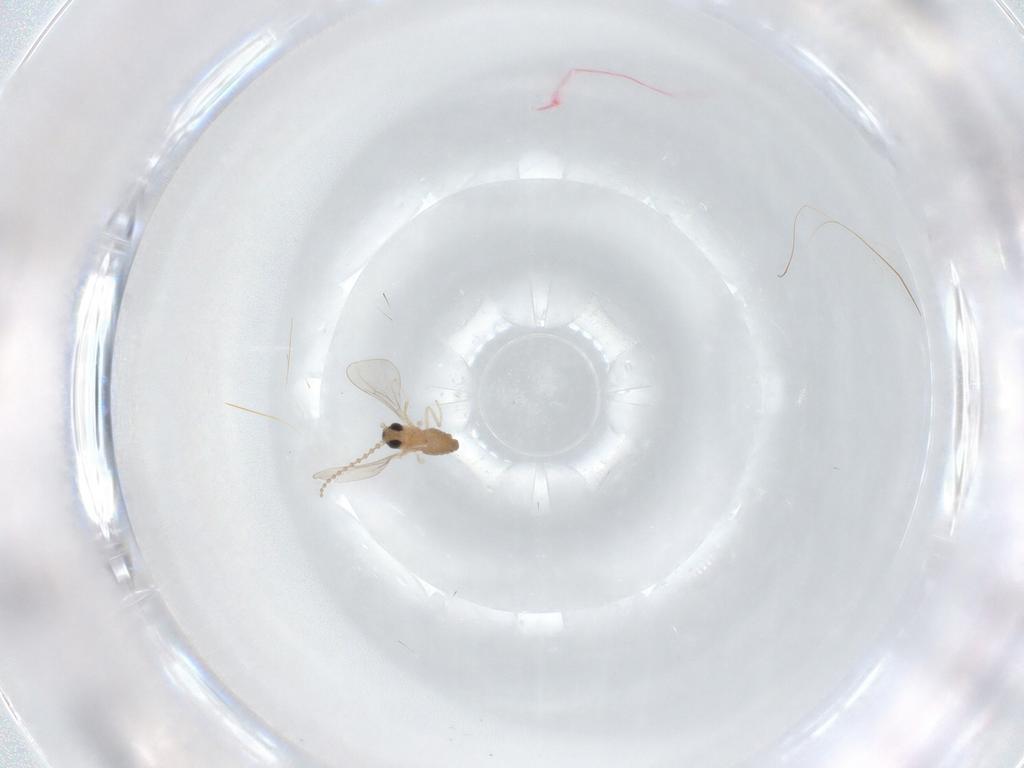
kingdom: Animalia
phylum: Arthropoda
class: Insecta
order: Diptera
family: Cecidomyiidae
